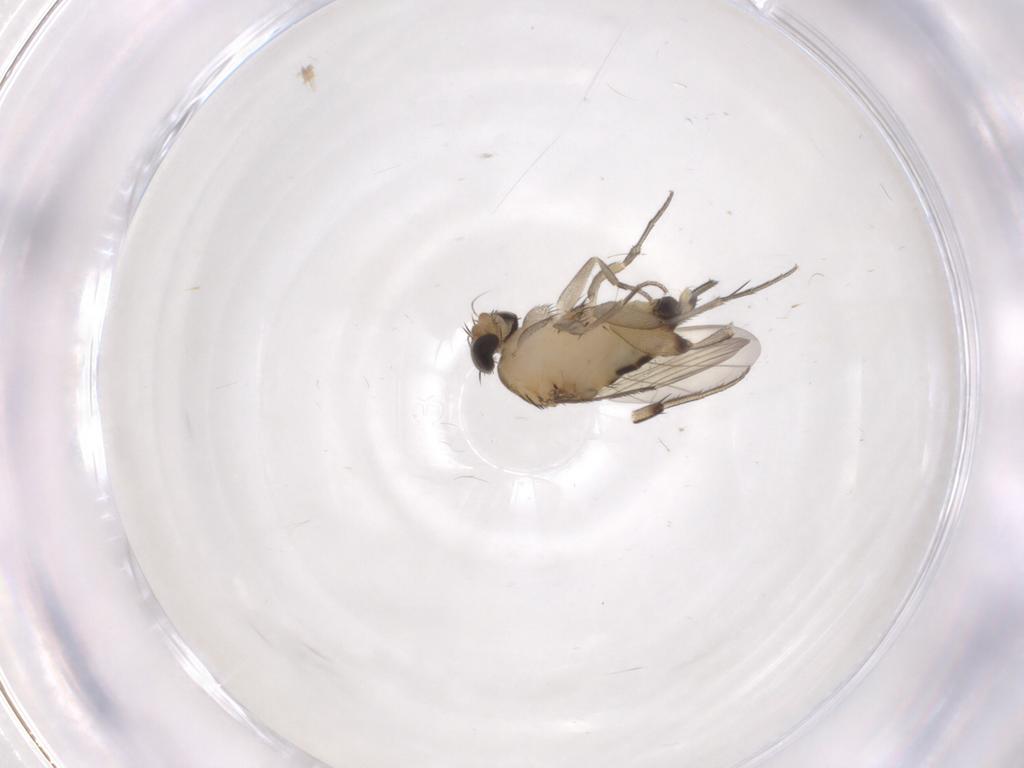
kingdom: Animalia
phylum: Arthropoda
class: Insecta
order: Diptera
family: Phoridae
